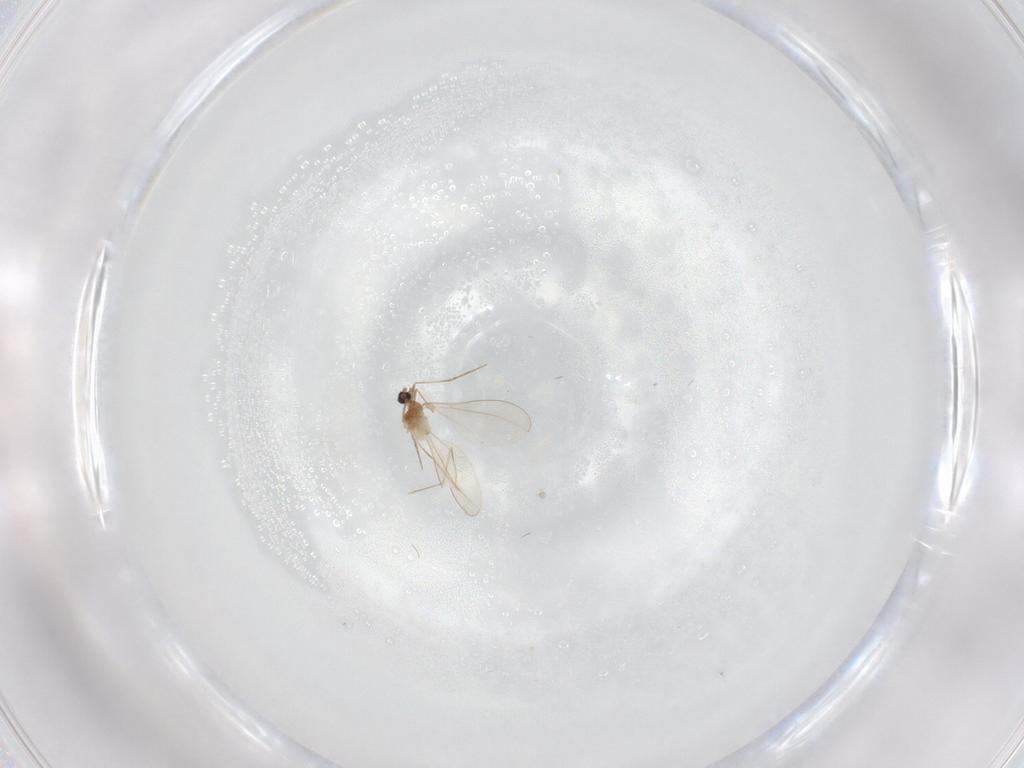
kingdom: Animalia
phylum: Arthropoda
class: Insecta
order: Diptera
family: Cecidomyiidae
